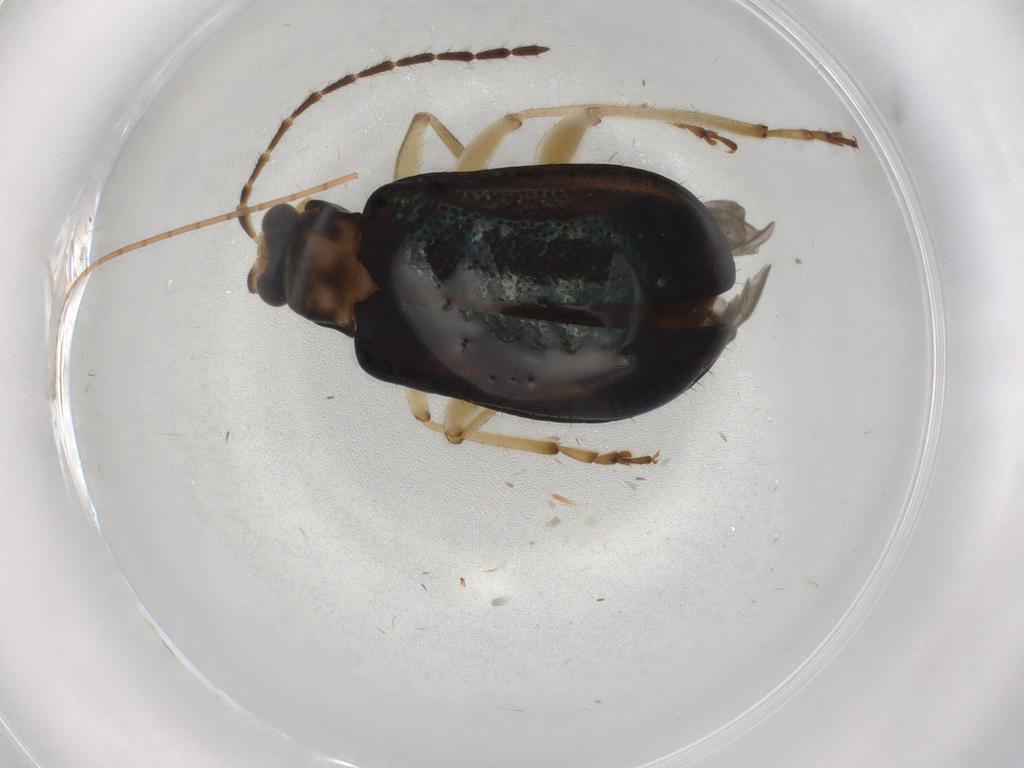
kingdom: Animalia
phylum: Arthropoda
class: Insecta
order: Coleoptera
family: Chrysomelidae
